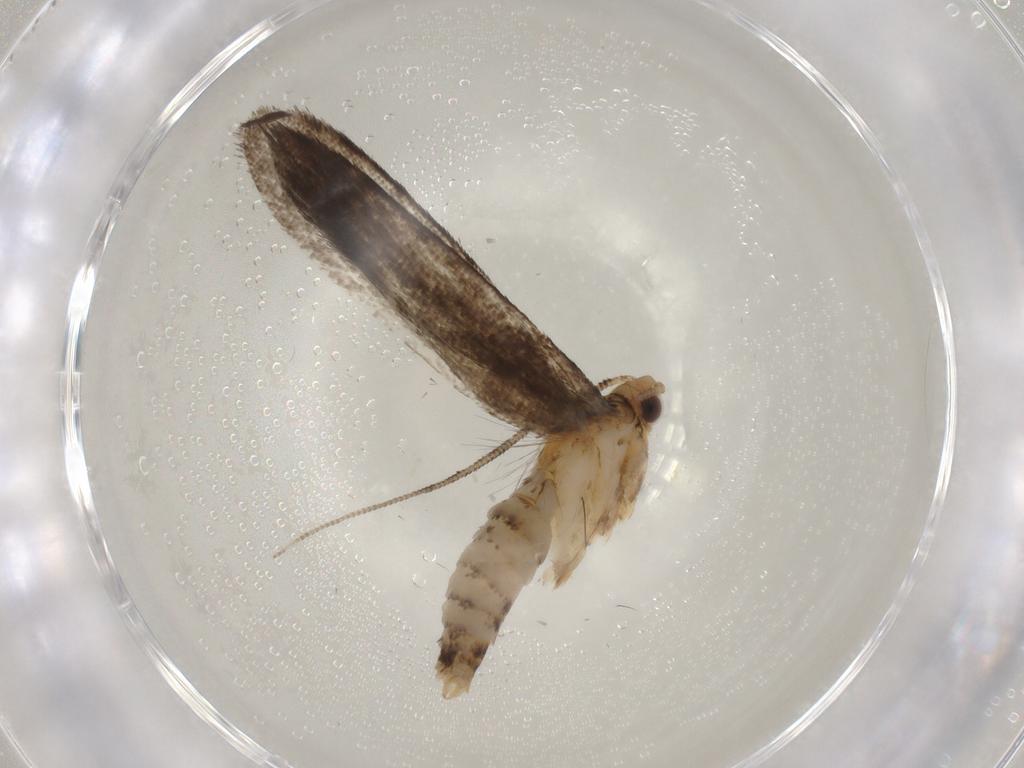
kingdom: Animalia
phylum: Arthropoda
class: Insecta
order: Lepidoptera
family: Tineidae
